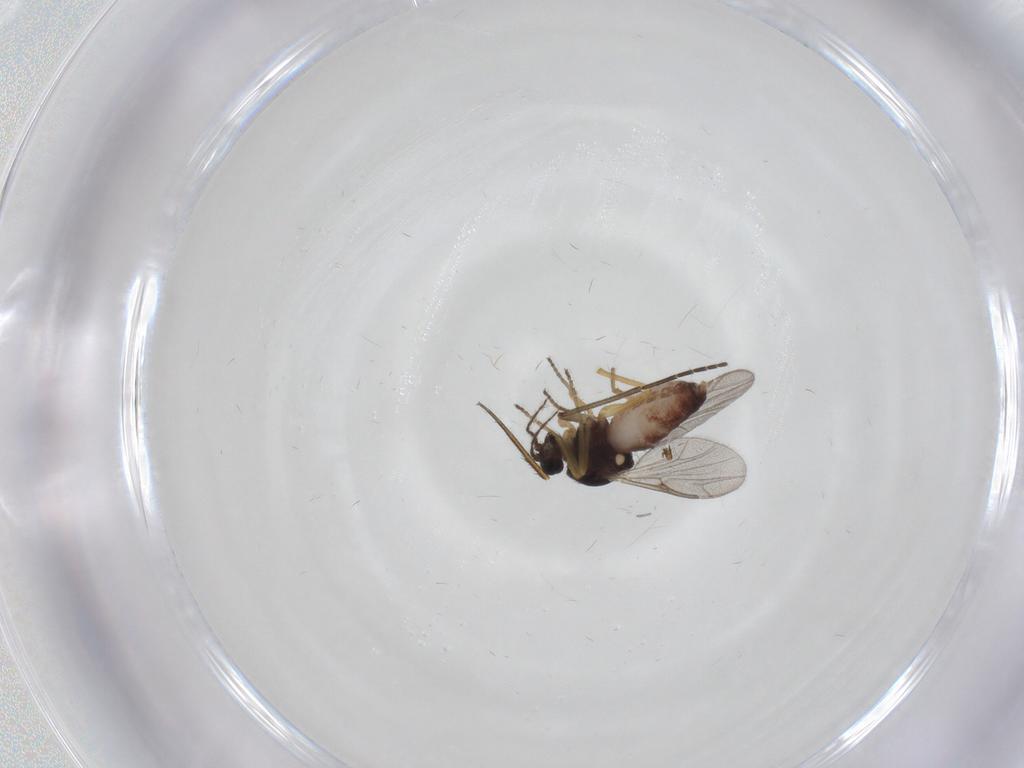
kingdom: Animalia
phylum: Arthropoda
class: Insecta
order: Diptera
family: Ceratopogonidae
